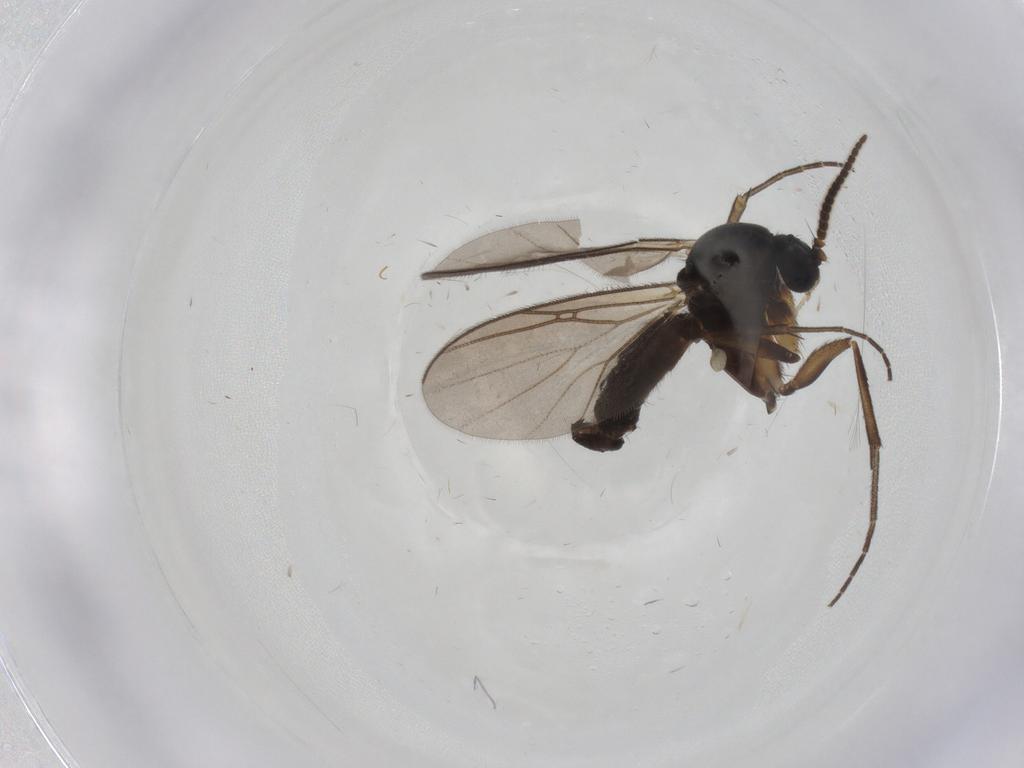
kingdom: Animalia
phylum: Arthropoda
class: Insecta
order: Diptera
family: Mycetophilidae
